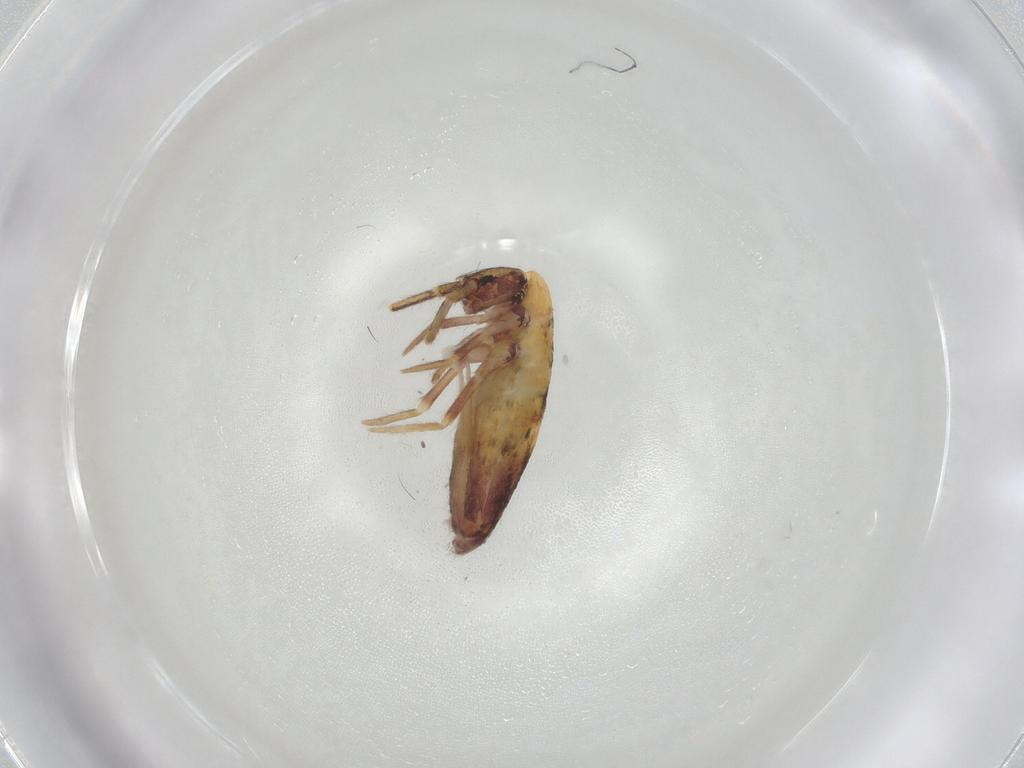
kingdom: Animalia
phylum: Arthropoda
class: Collembola
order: Entomobryomorpha
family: Entomobryidae
